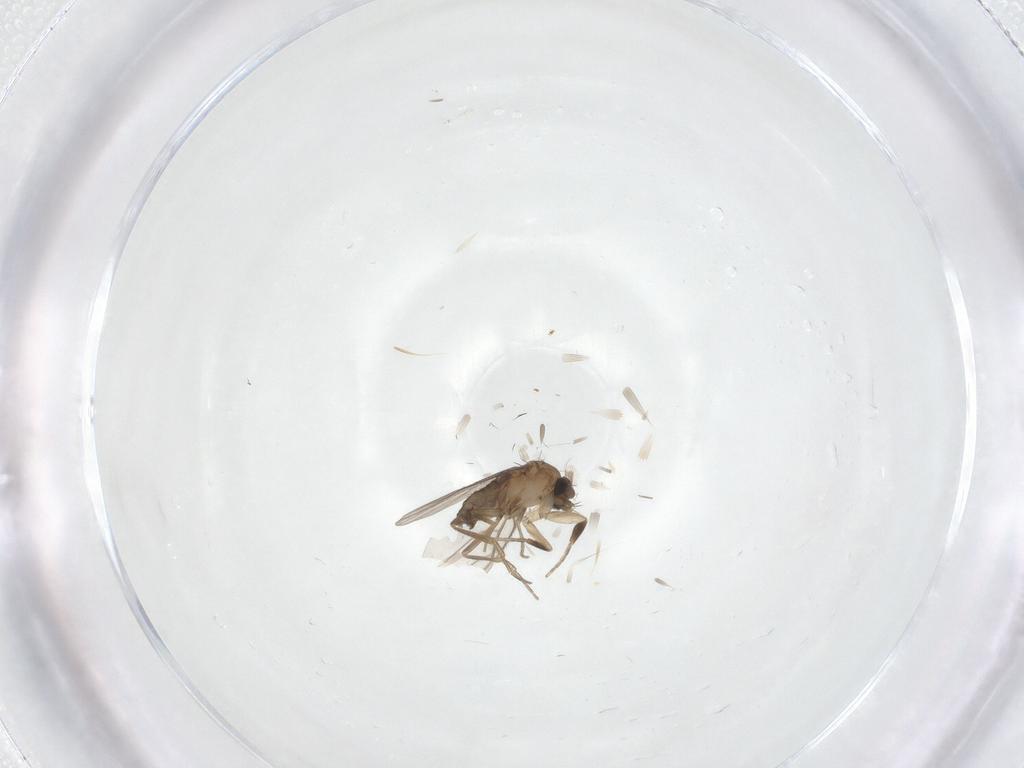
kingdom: Animalia
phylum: Arthropoda
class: Insecta
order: Diptera
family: Phoridae
